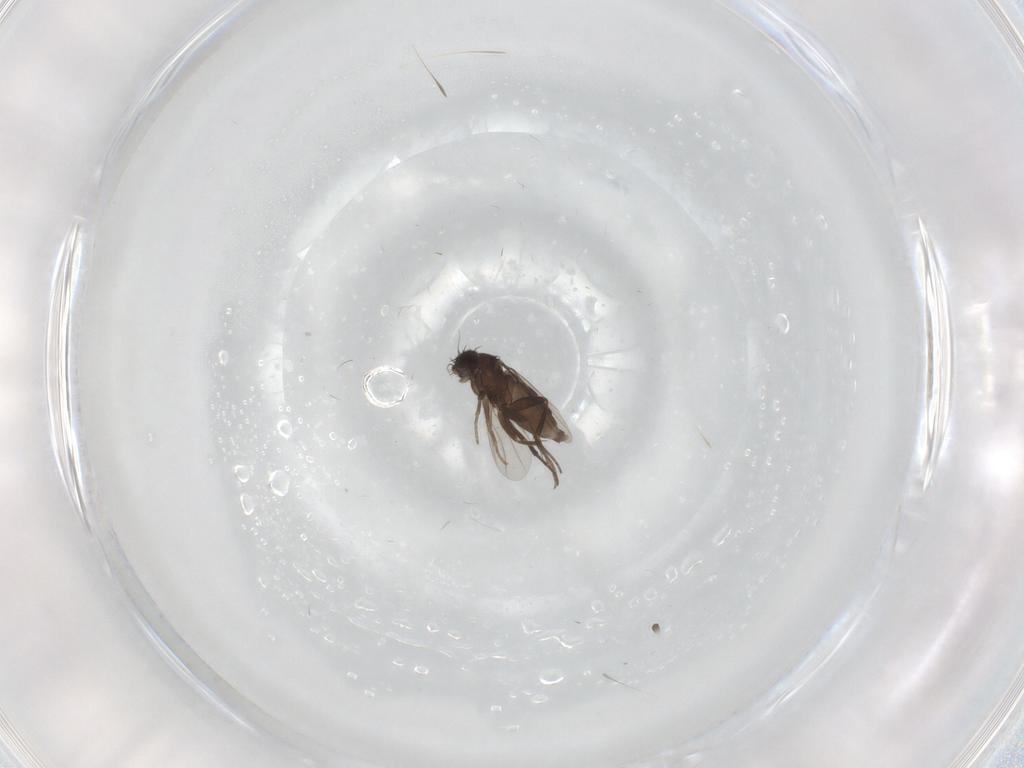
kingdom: Animalia
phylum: Arthropoda
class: Insecta
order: Diptera
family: Phoridae
